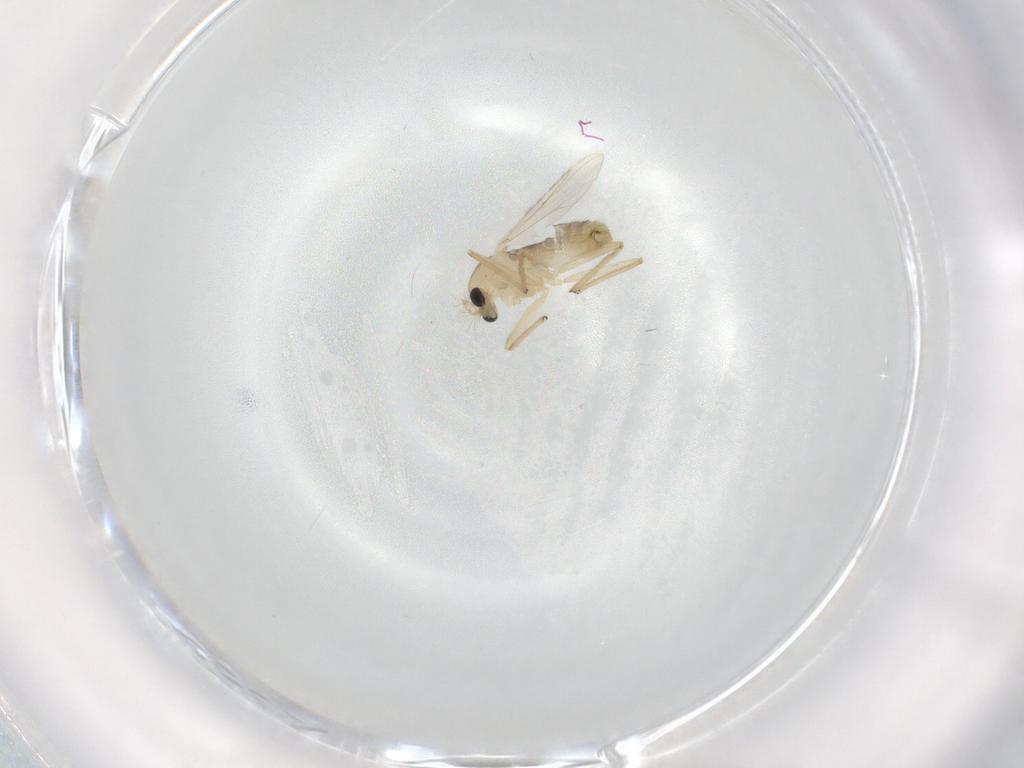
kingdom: Animalia
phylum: Arthropoda
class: Insecta
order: Diptera
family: Chironomidae
